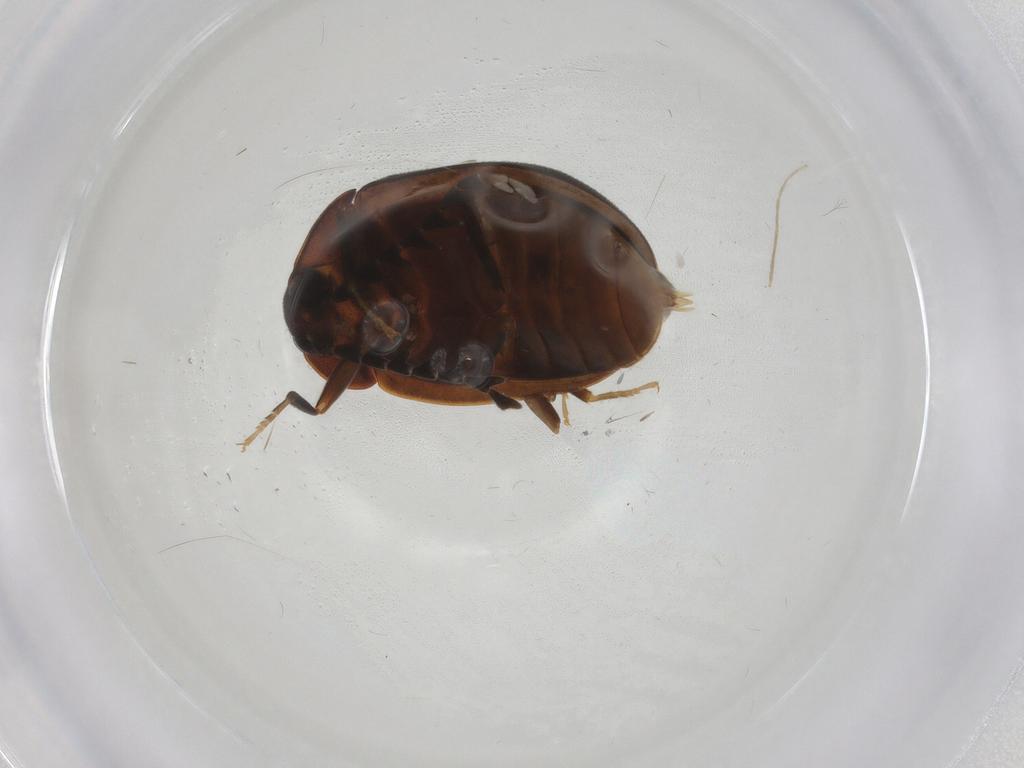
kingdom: Animalia
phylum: Arthropoda
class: Insecta
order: Coleoptera
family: Psephenidae
